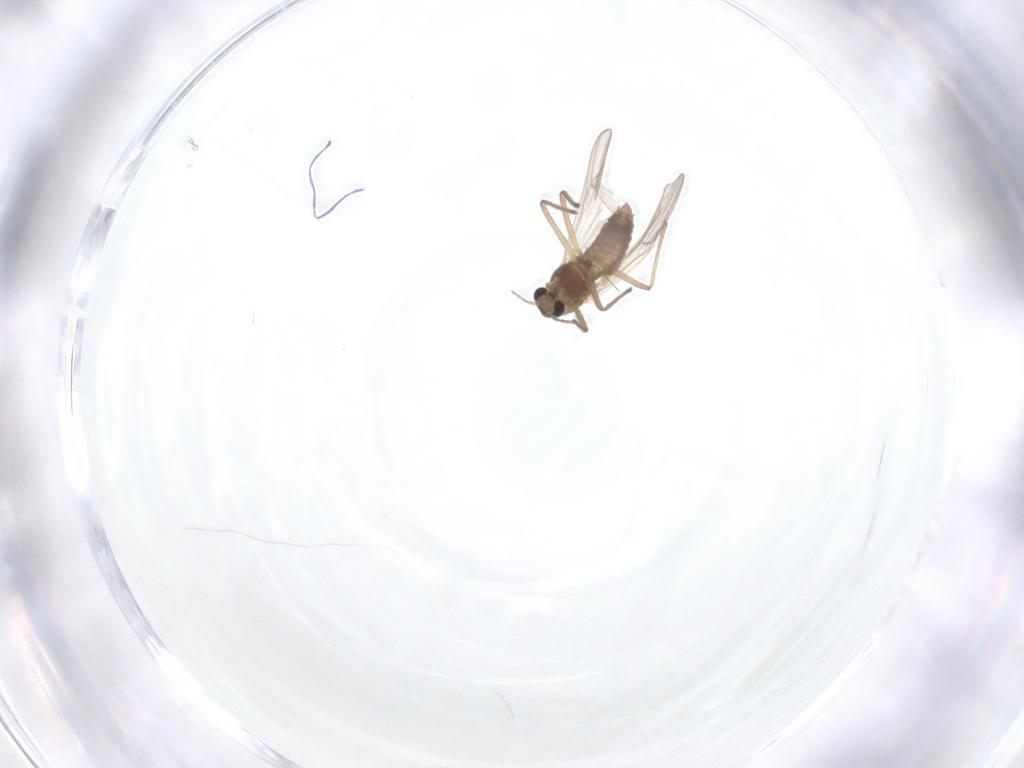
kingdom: Animalia
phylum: Arthropoda
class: Insecta
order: Diptera
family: Chironomidae
